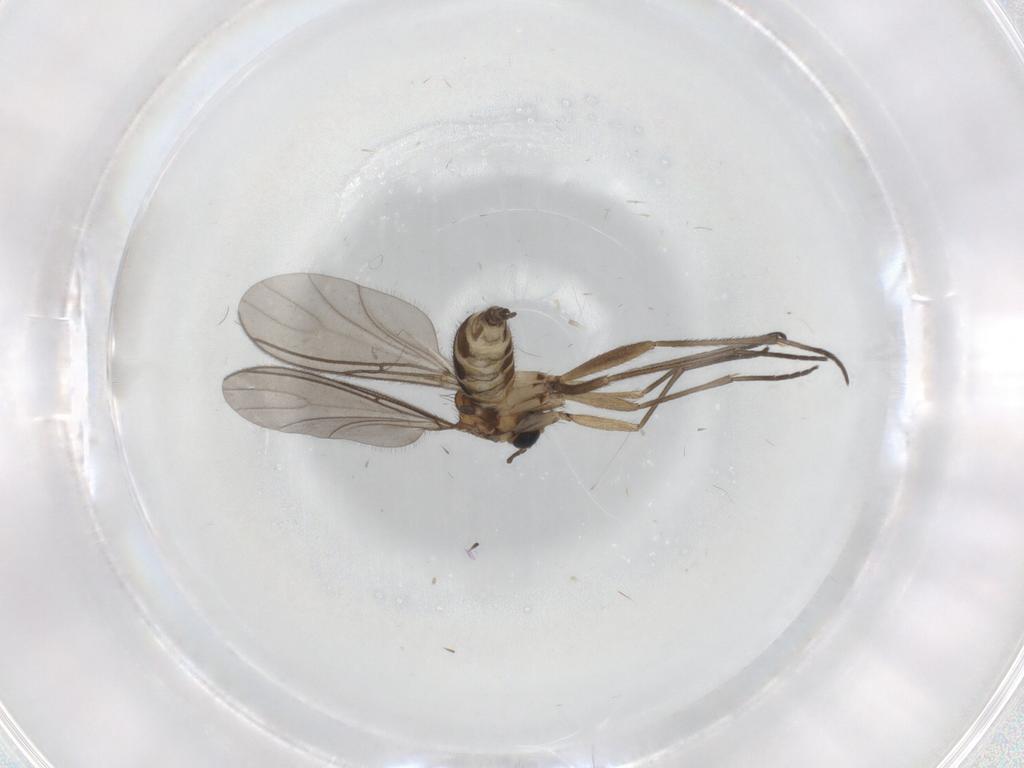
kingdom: Animalia
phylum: Arthropoda
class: Insecta
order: Diptera
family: Sciaridae
